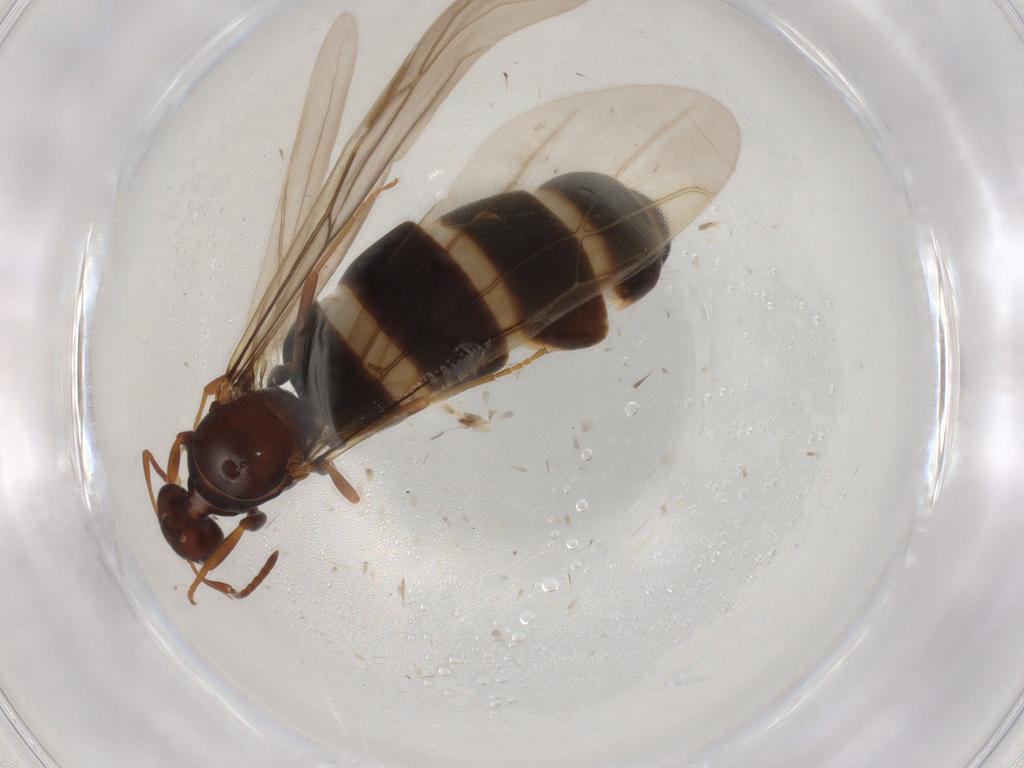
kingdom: Animalia
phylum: Arthropoda
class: Insecta
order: Hymenoptera
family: Formicidae
